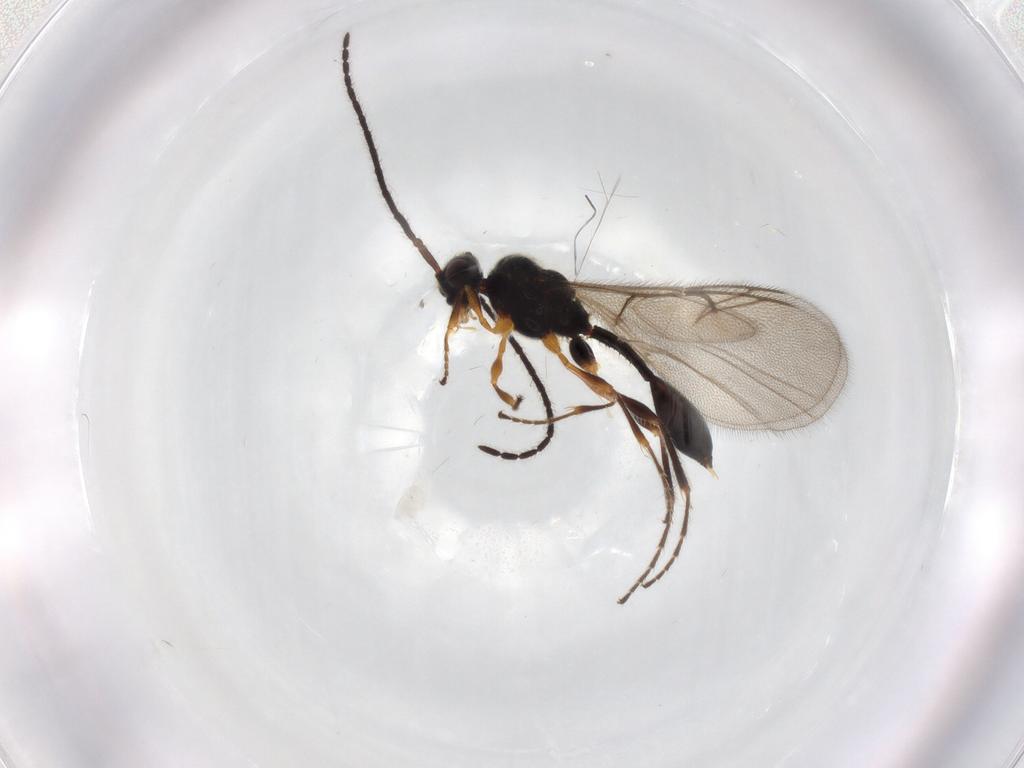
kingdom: Animalia
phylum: Arthropoda
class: Insecta
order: Hymenoptera
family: Diapriidae
